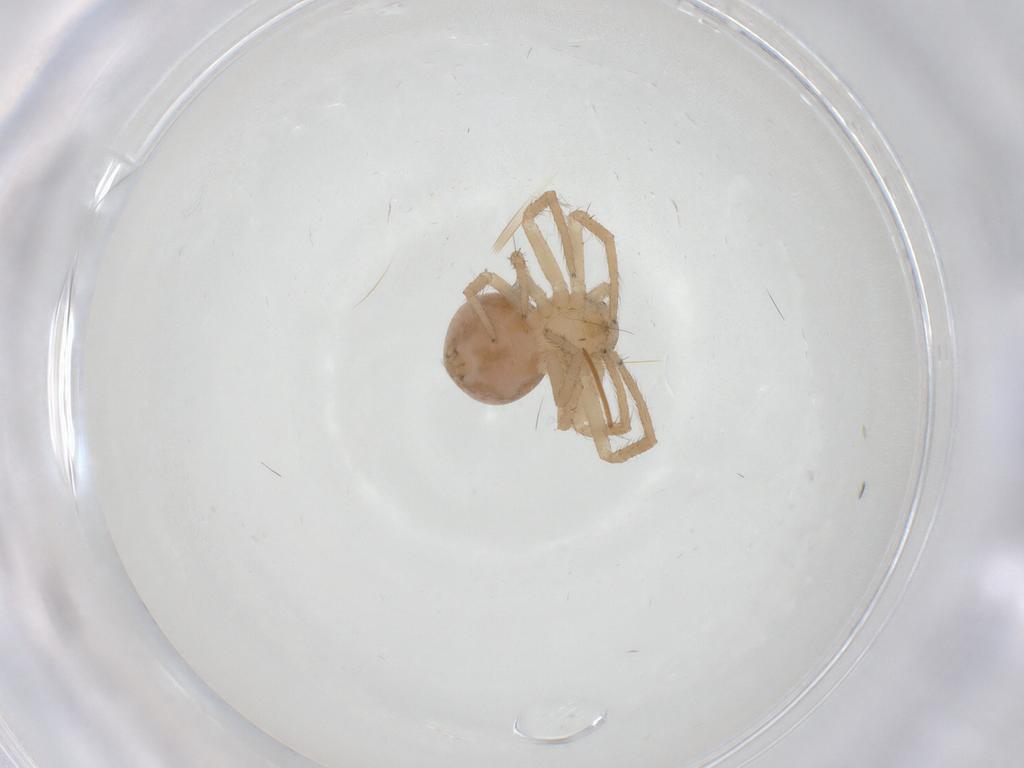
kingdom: Animalia
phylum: Arthropoda
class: Arachnida
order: Araneae
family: Thomisidae
